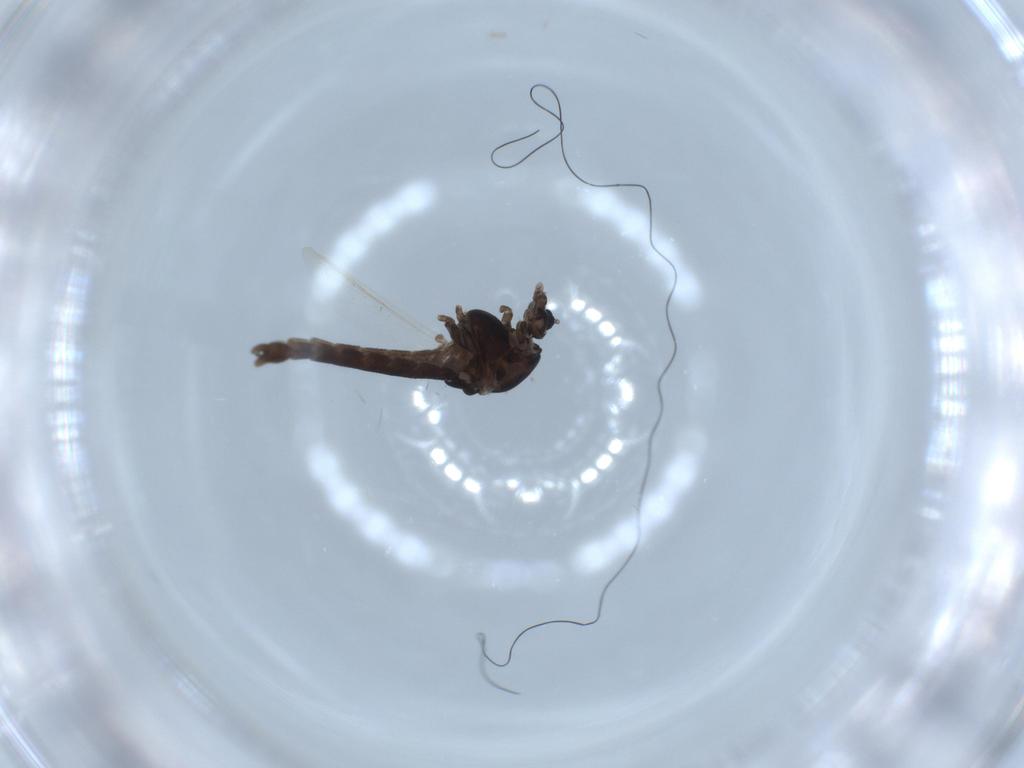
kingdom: Animalia
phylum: Arthropoda
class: Insecta
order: Diptera
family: Chironomidae
